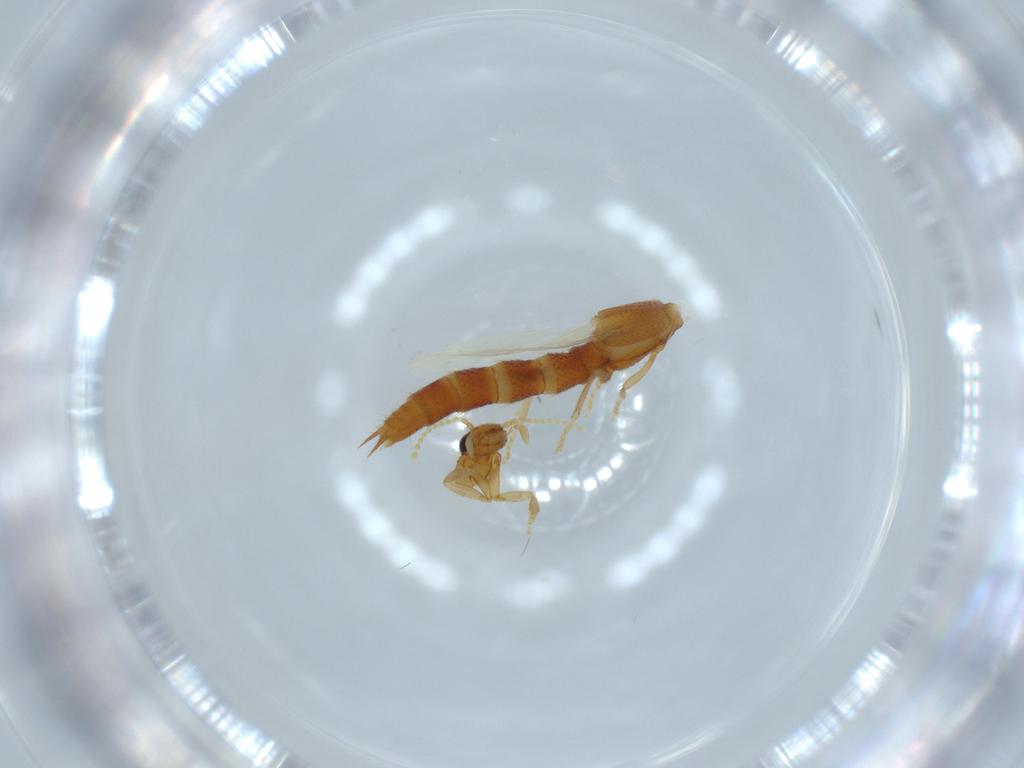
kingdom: Animalia
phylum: Arthropoda
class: Insecta
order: Coleoptera
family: Staphylinidae
